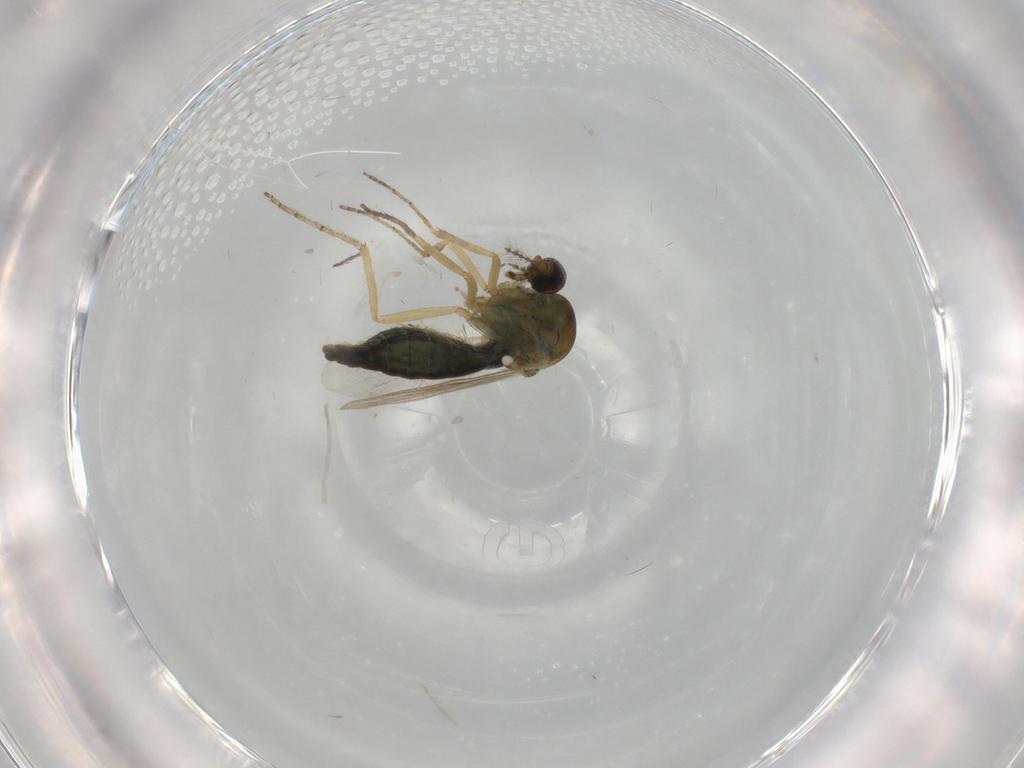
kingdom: Animalia
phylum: Arthropoda
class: Insecta
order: Diptera
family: Ceratopogonidae
